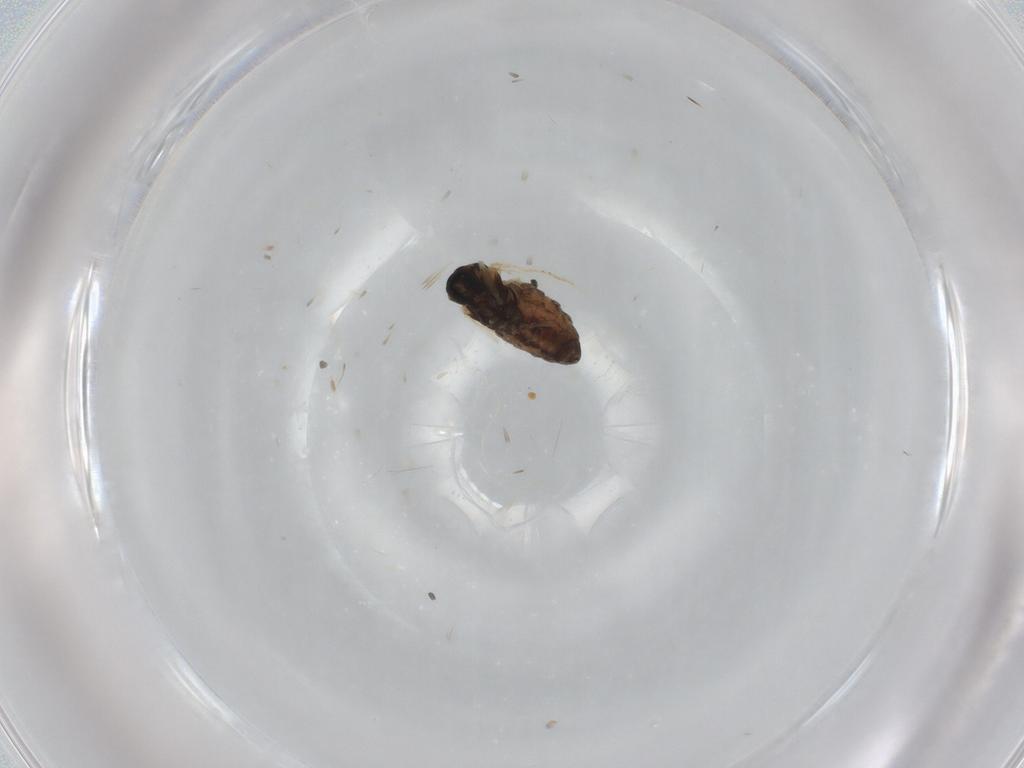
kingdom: Animalia
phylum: Arthropoda
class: Insecta
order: Diptera
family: Cecidomyiidae
